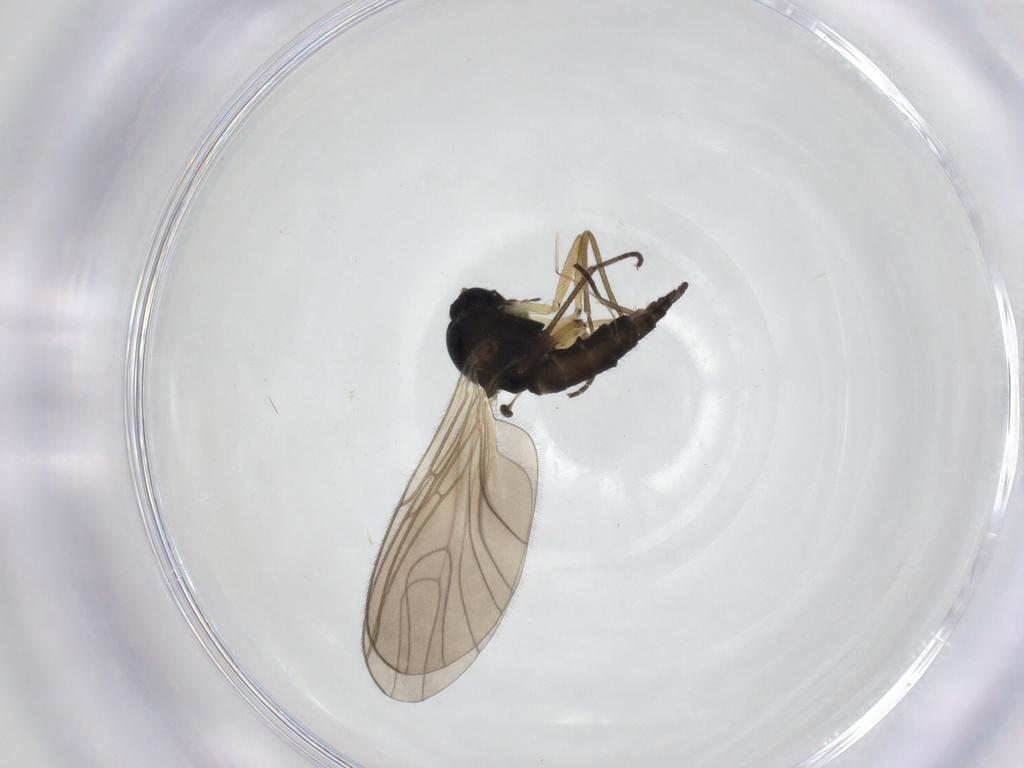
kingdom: Animalia
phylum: Arthropoda
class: Insecta
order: Diptera
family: Sciaridae
